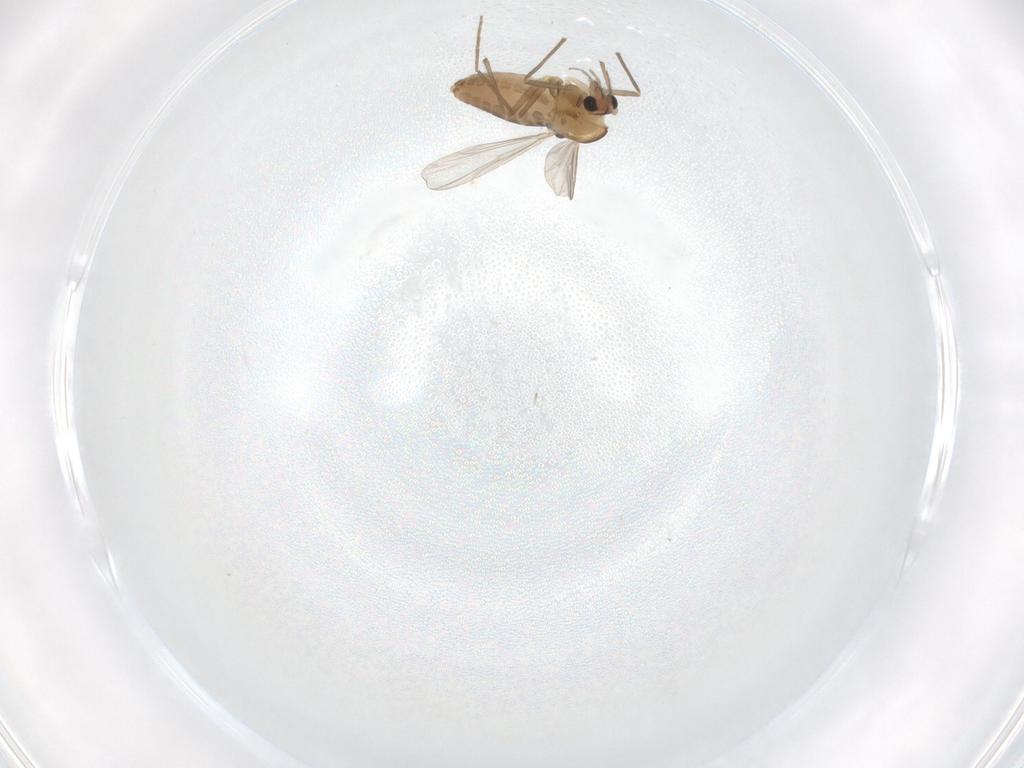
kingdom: Animalia
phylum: Arthropoda
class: Insecta
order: Diptera
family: Chironomidae
